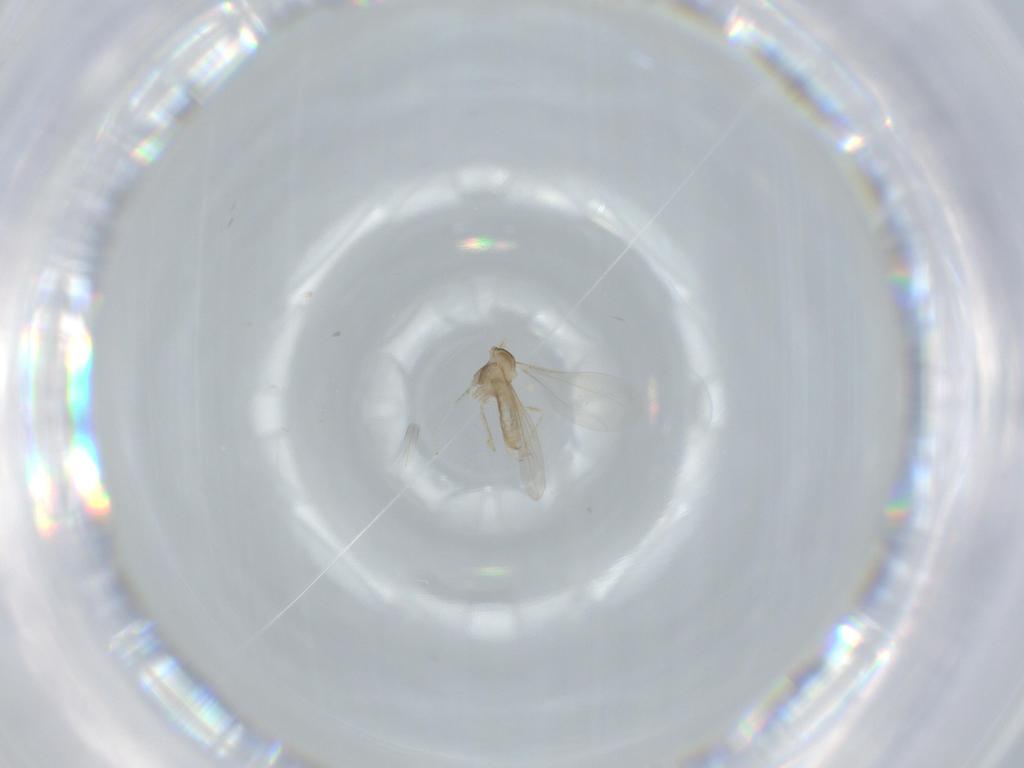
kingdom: Animalia
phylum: Arthropoda
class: Insecta
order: Diptera
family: Cecidomyiidae
